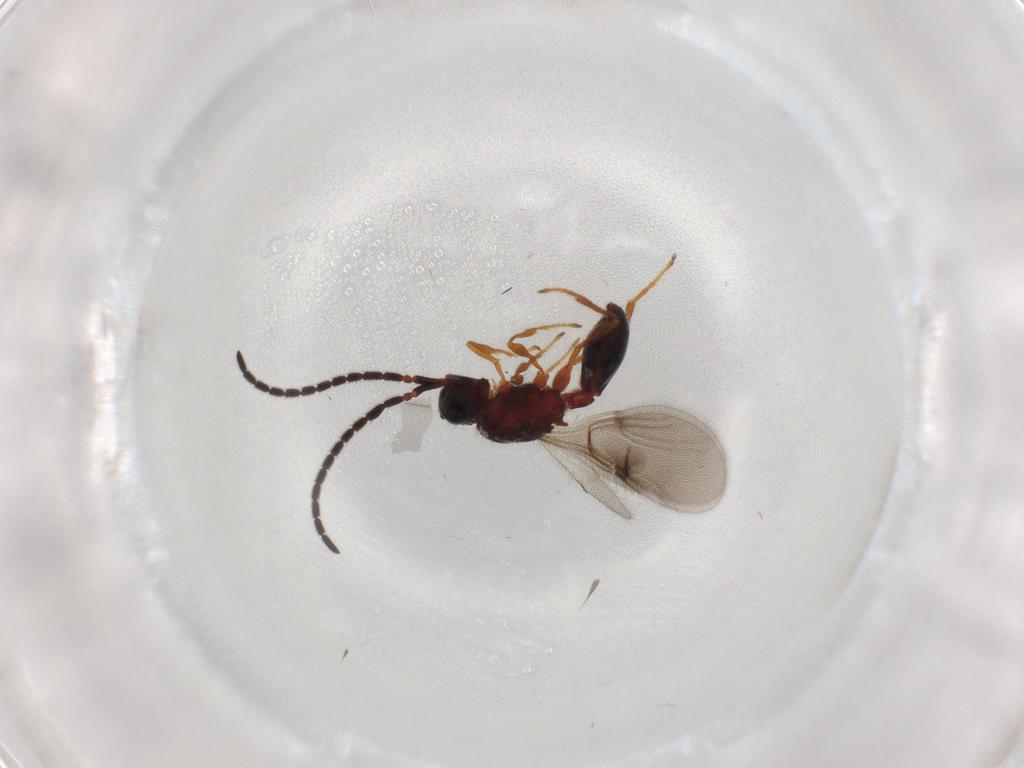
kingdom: Animalia
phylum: Arthropoda
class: Insecta
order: Hymenoptera
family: Diapriidae
